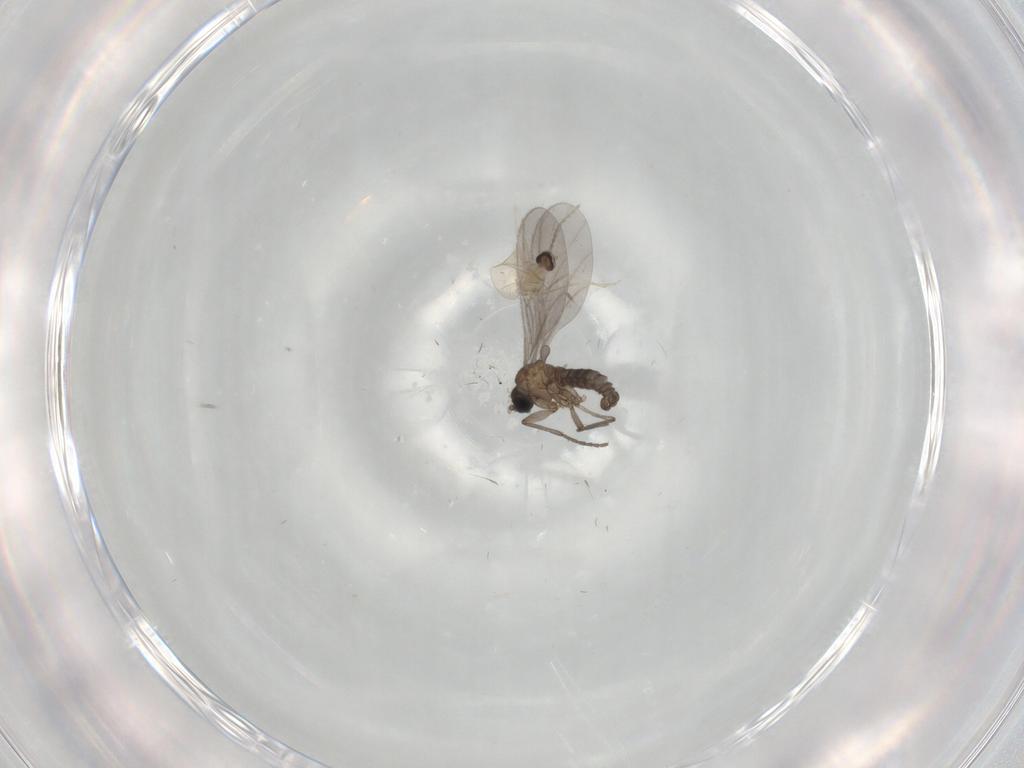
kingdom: Animalia
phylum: Arthropoda
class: Insecta
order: Diptera
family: Sciaridae
